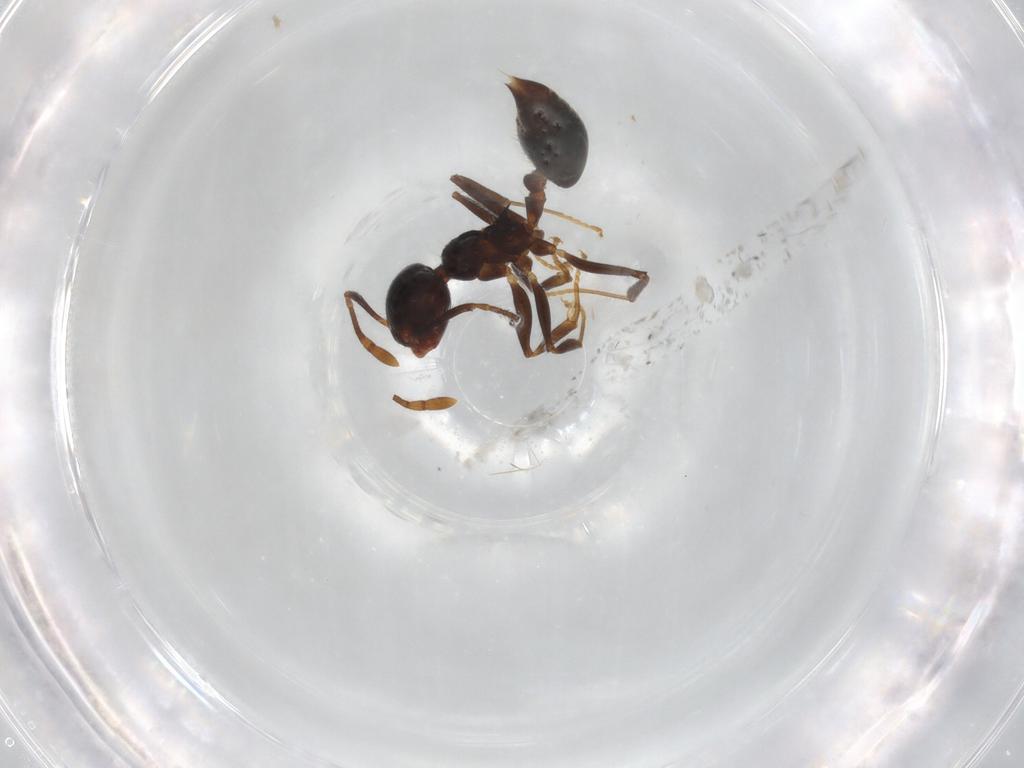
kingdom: Animalia
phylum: Arthropoda
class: Insecta
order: Hymenoptera
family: Formicidae
